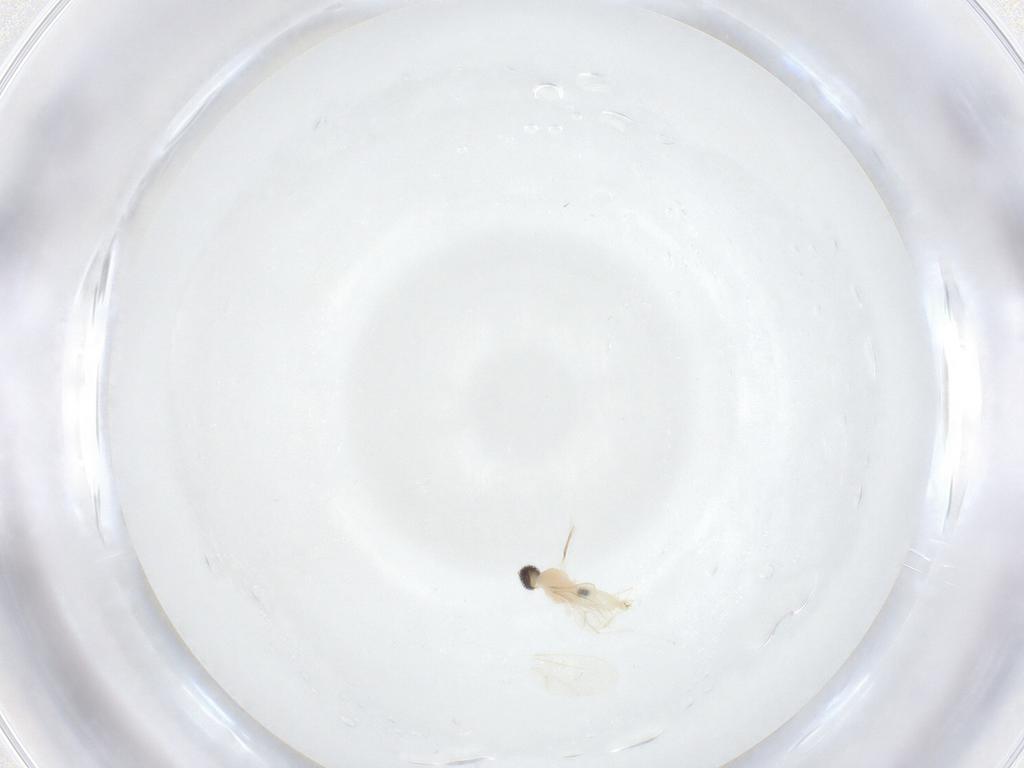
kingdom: Animalia
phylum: Arthropoda
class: Insecta
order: Diptera
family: Cecidomyiidae
